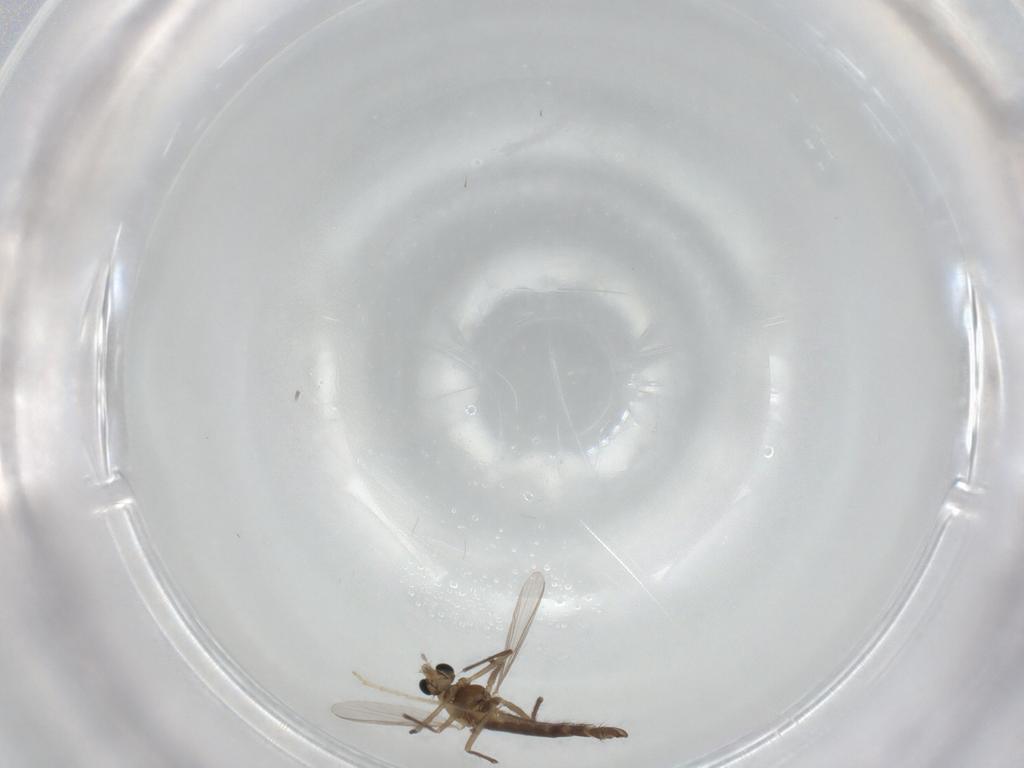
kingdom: Animalia
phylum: Arthropoda
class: Insecta
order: Diptera
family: Chironomidae
